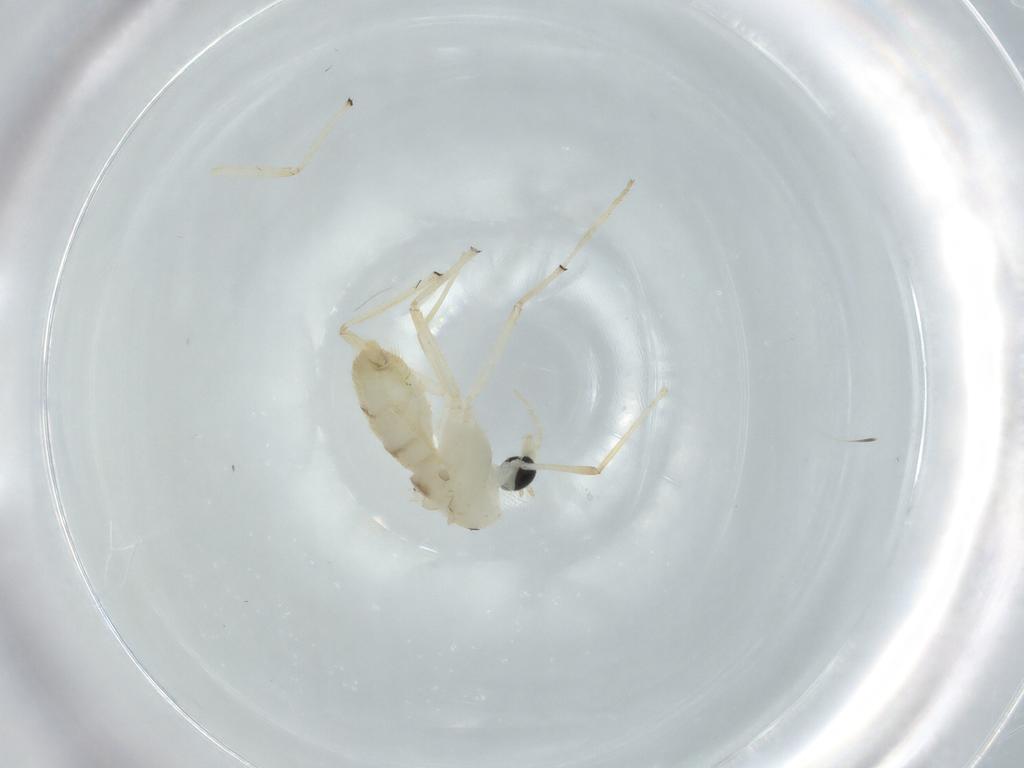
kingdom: Animalia
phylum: Arthropoda
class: Insecta
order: Diptera
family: Chironomidae
